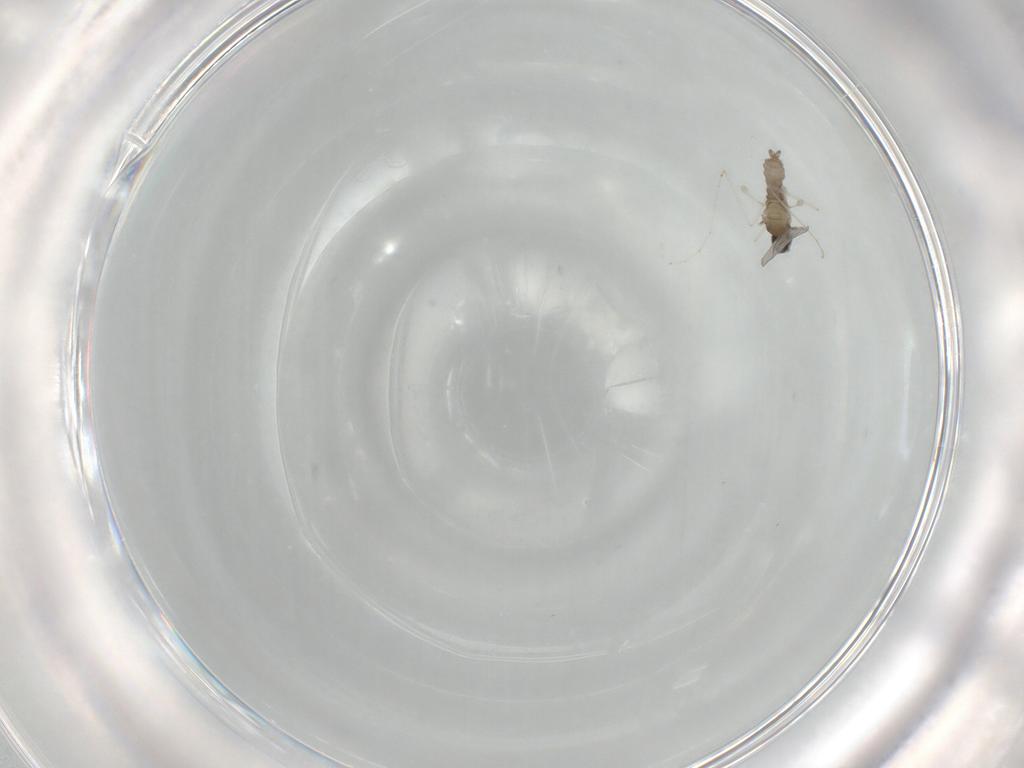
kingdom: Animalia
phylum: Arthropoda
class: Insecta
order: Diptera
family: Cecidomyiidae
